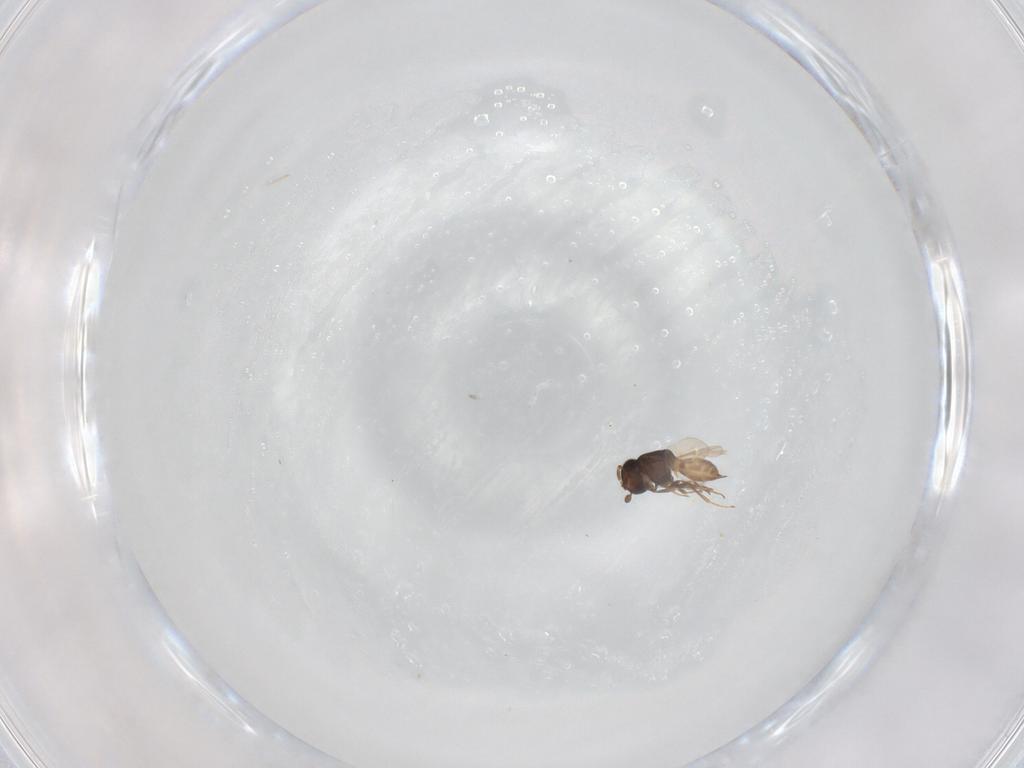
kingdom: Animalia
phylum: Arthropoda
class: Insecta
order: Hymenoptera
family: Scelionidae
